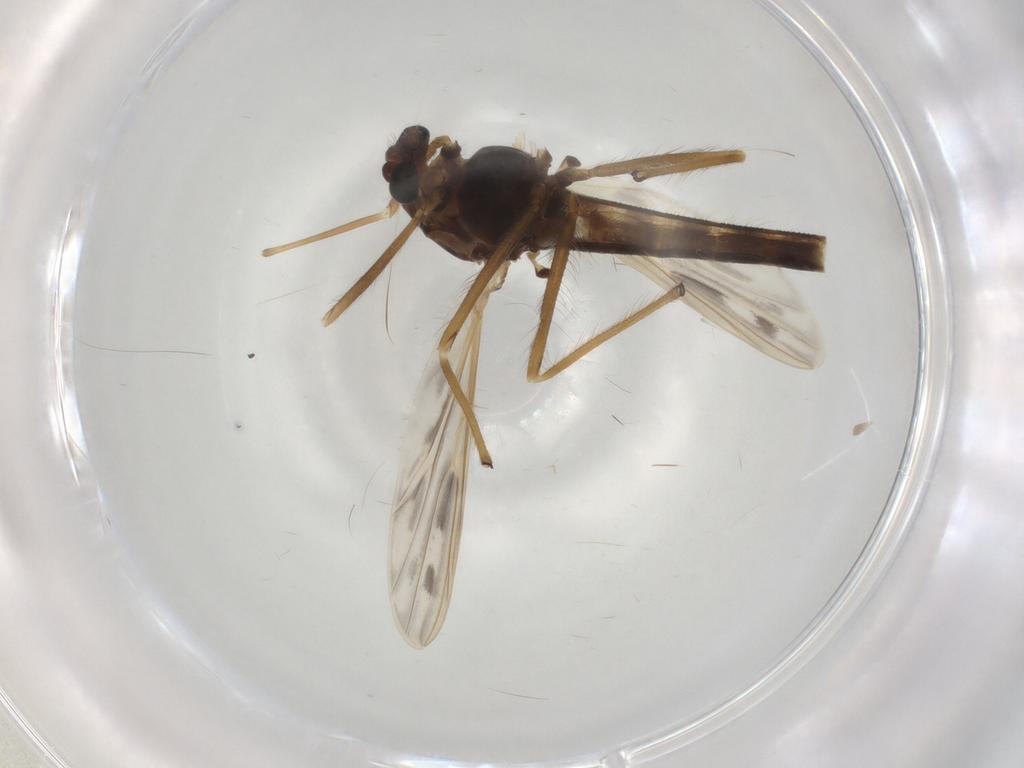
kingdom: Animalia
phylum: Arthropoda
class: Insecta
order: Diptera
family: Chironomidae
